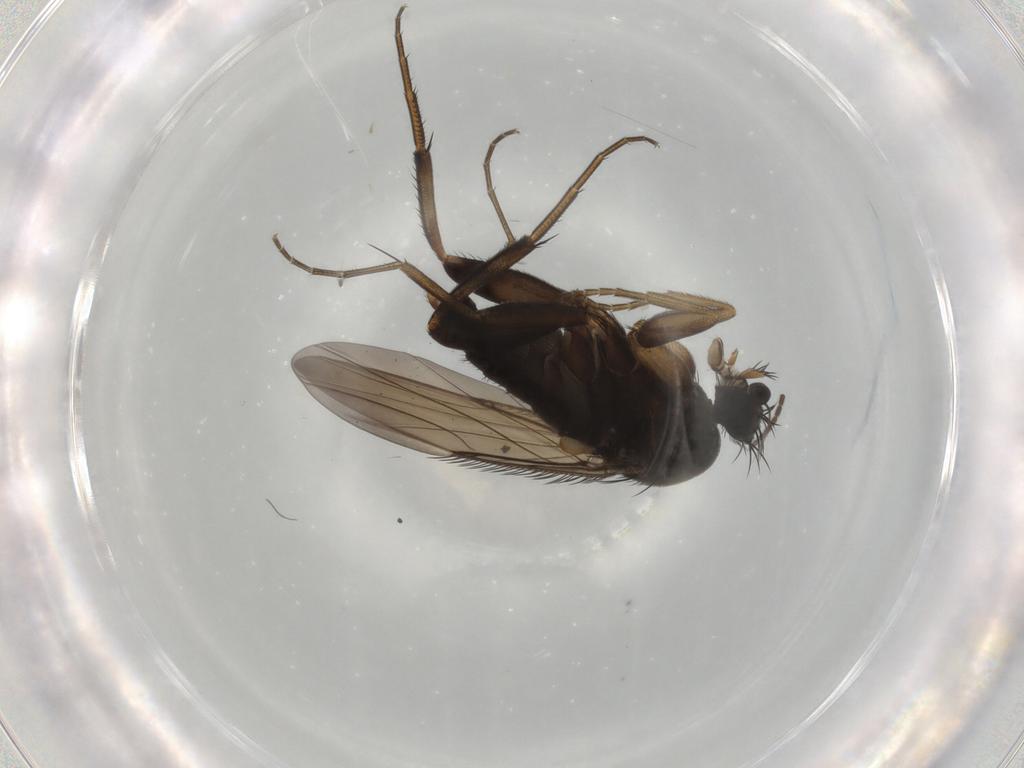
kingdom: Animalia
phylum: Arthropoda
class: Insecta
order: Diptera
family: Phoridae
